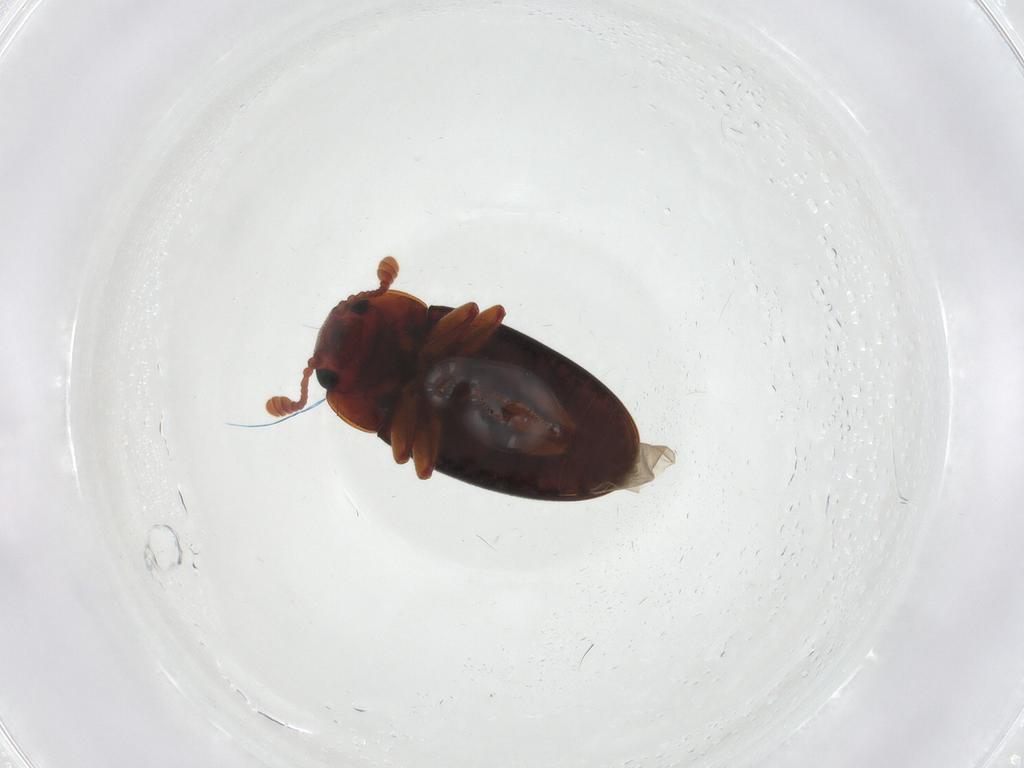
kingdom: Animalia
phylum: Arthropoda
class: Insecta
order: Coleoptera
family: Erotylidae
